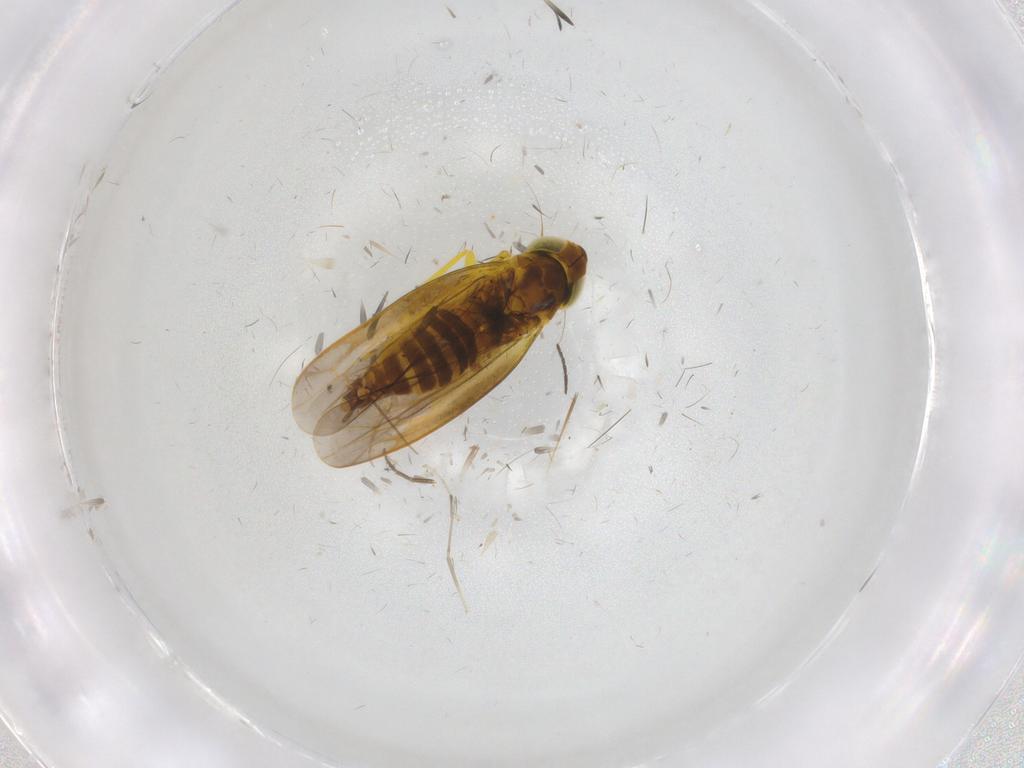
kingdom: Animalia
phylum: Arthropoda
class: Insecta
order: Hemiptera
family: Cicadellidae
